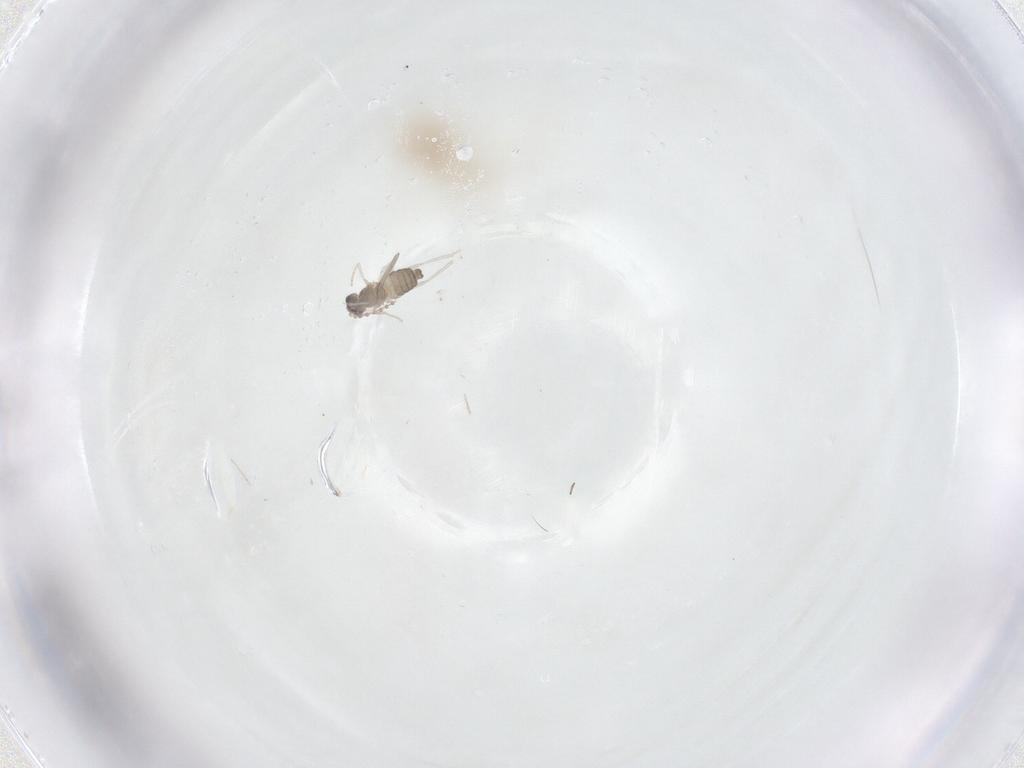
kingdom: Animalia
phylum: Arthropoda
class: Insecta
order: Diptera
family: Cecidomyiidae
